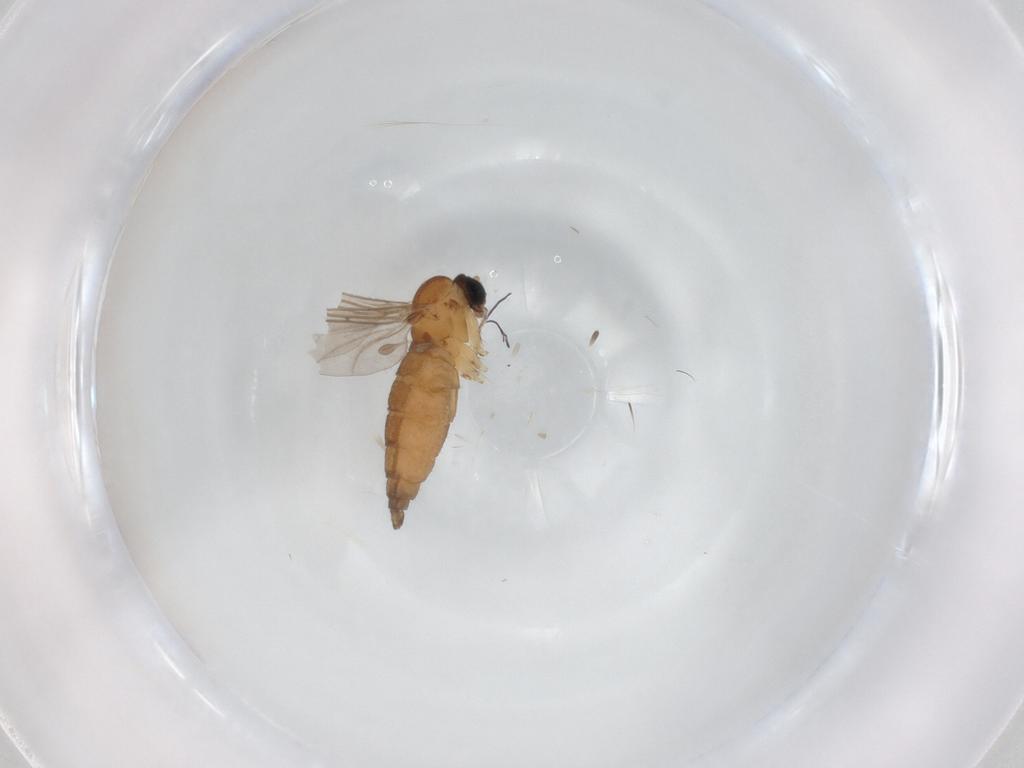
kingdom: Animalia
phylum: Arthropoda
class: Insecta
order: Diptera
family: Sciaridae
